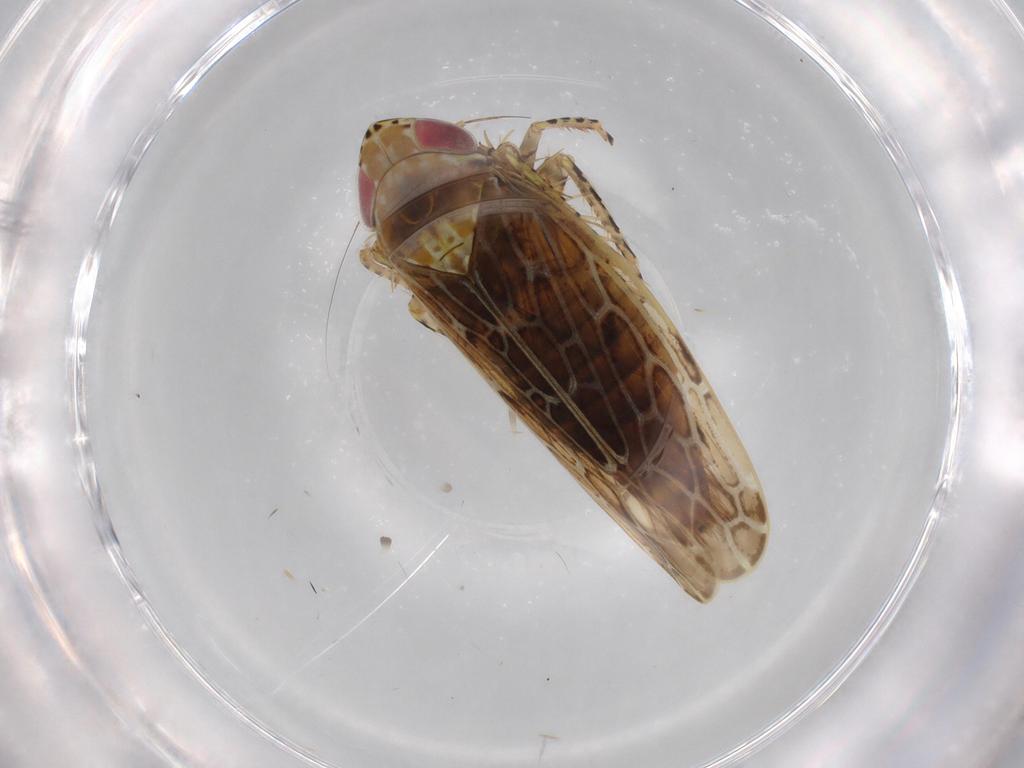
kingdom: Animalia
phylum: Arthropoda
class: Insecta
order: Hemiptera
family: Cicadellidae
